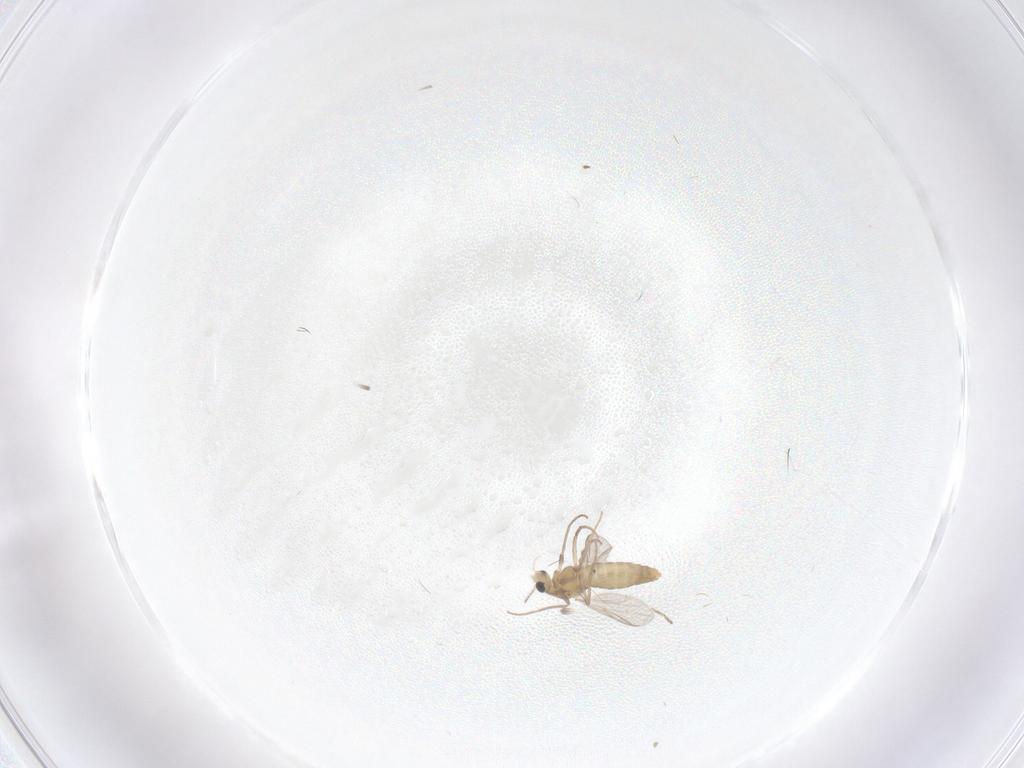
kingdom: Animalia
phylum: Arthropoda
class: Insecta
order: Diptera
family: Chironomidae
